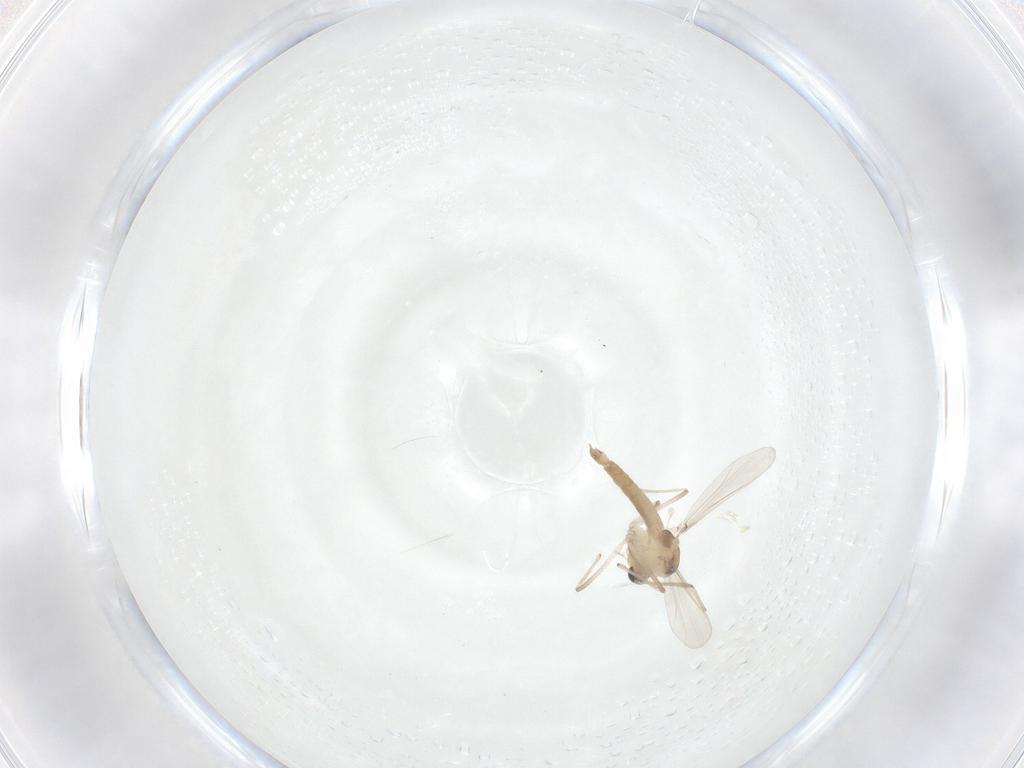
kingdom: Animalia
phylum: Arthropoda
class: Insecta
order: Diptera
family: Chironomidae
